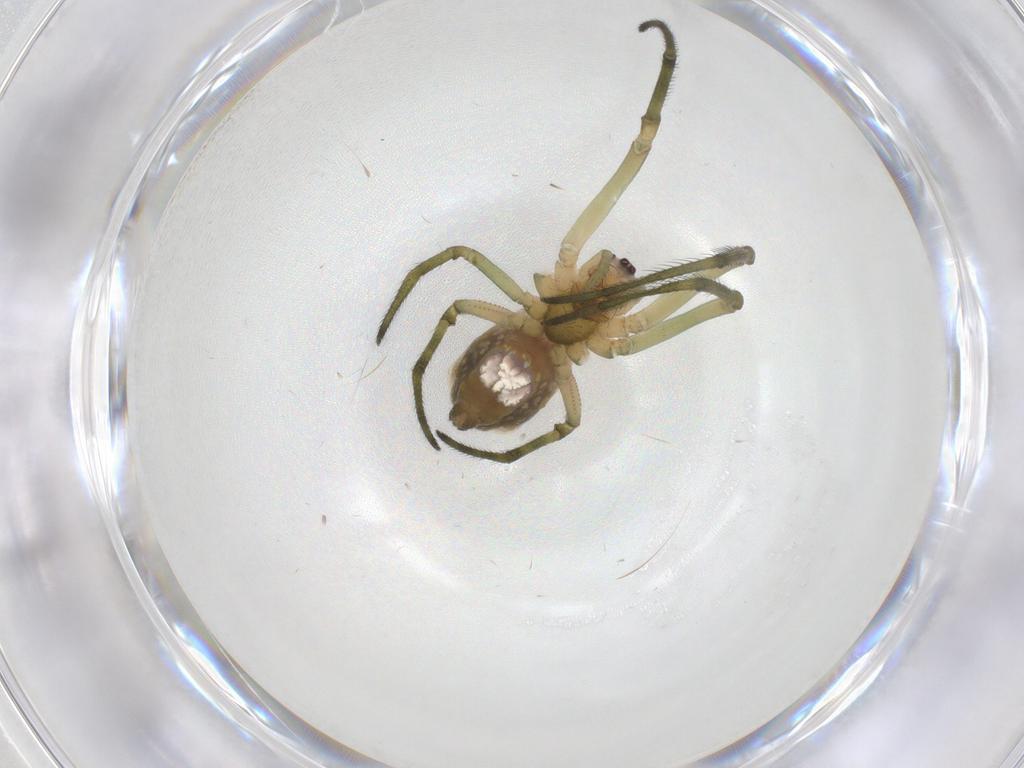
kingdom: Animalia
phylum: Arthropoda
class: Arachnida
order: Araneae
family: Tetragnathidae
